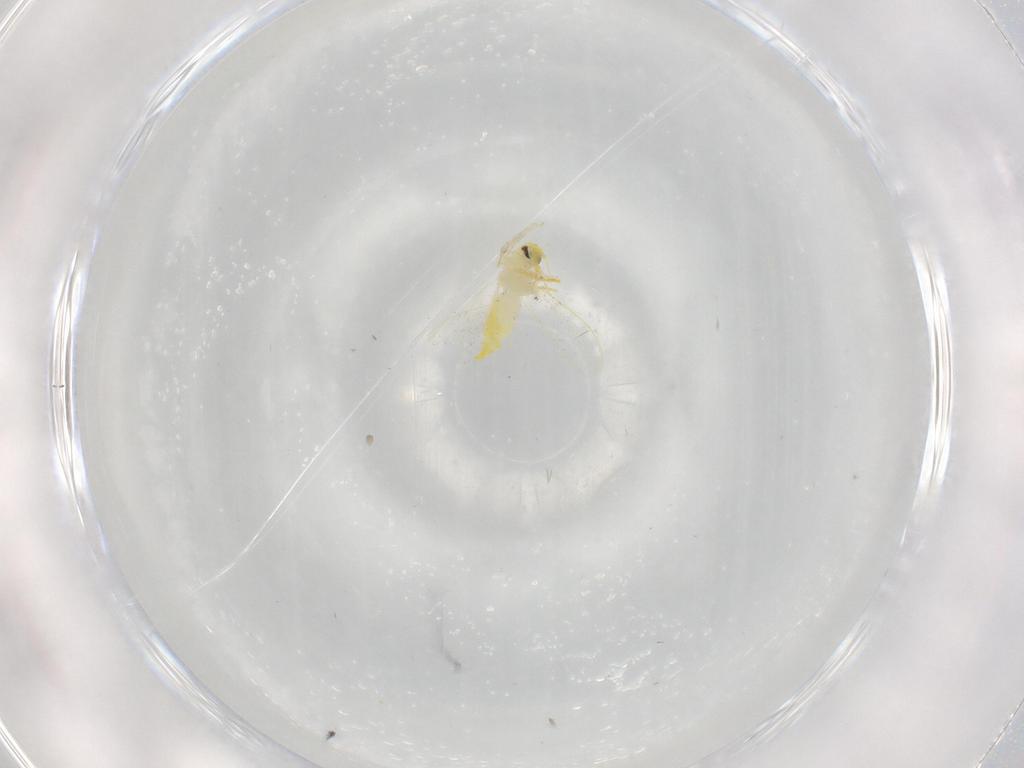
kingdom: Animalia
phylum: Arthropoda
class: Insecta
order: Hemiptera
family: Aleyrodidae
